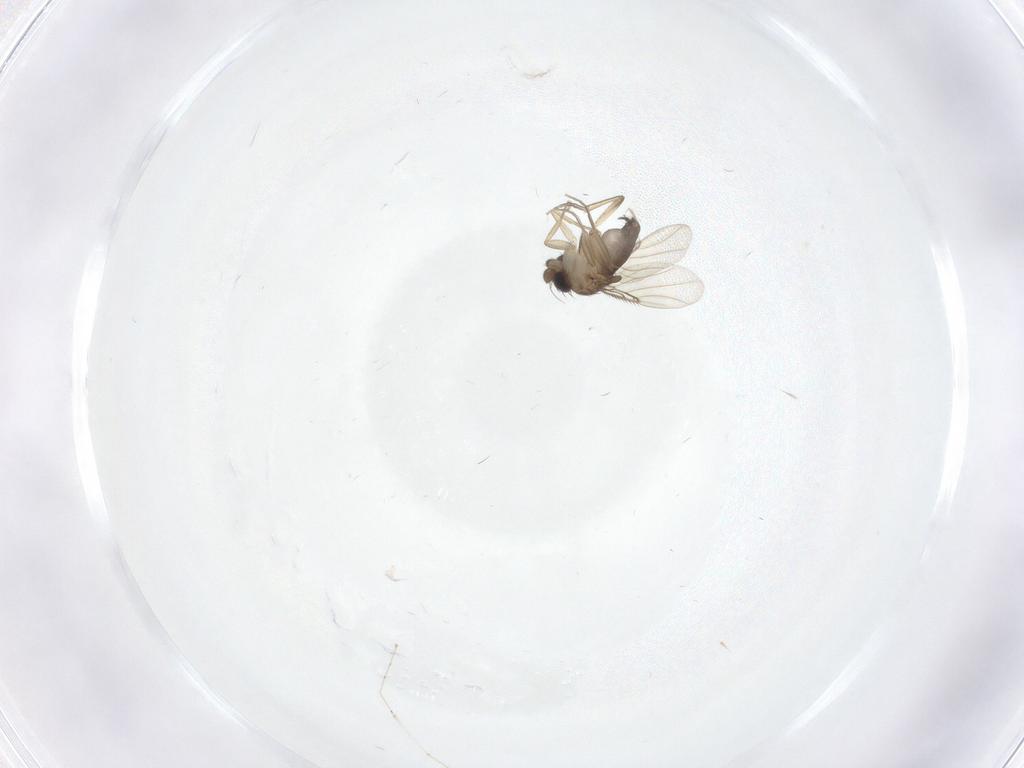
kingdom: Animalia
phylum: Arthropoda
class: Insecta
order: Diptera
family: Phoridae
